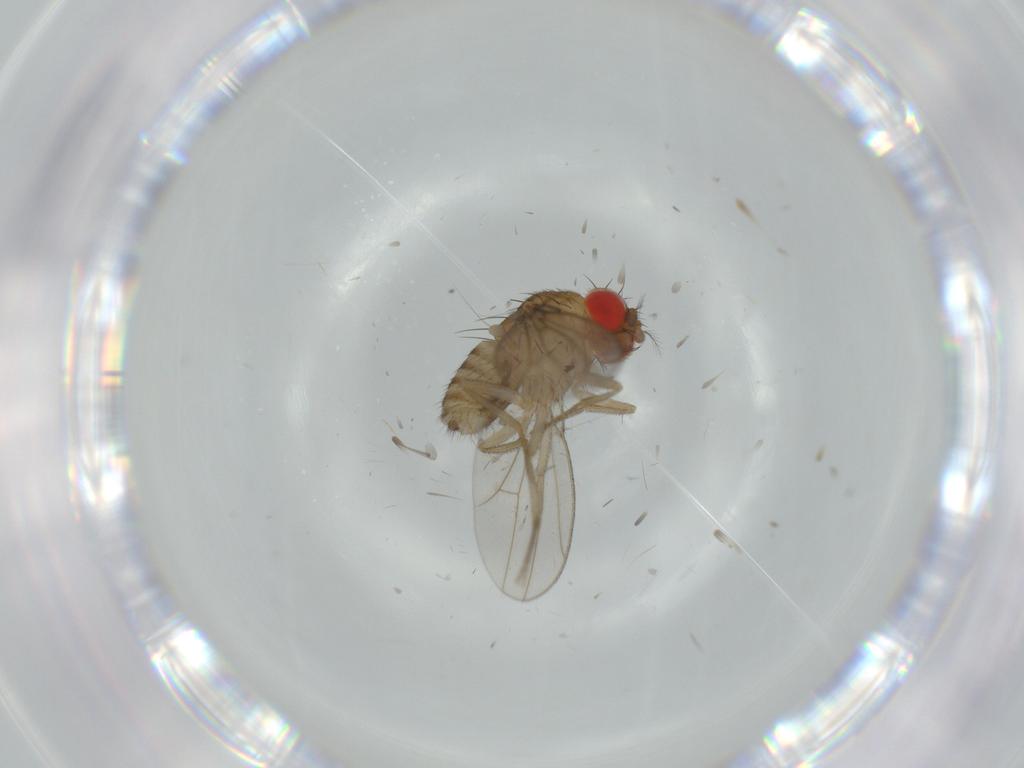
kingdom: Animalia
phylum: Arthropoda
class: Insecta
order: Diptera
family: Drosophilidae
